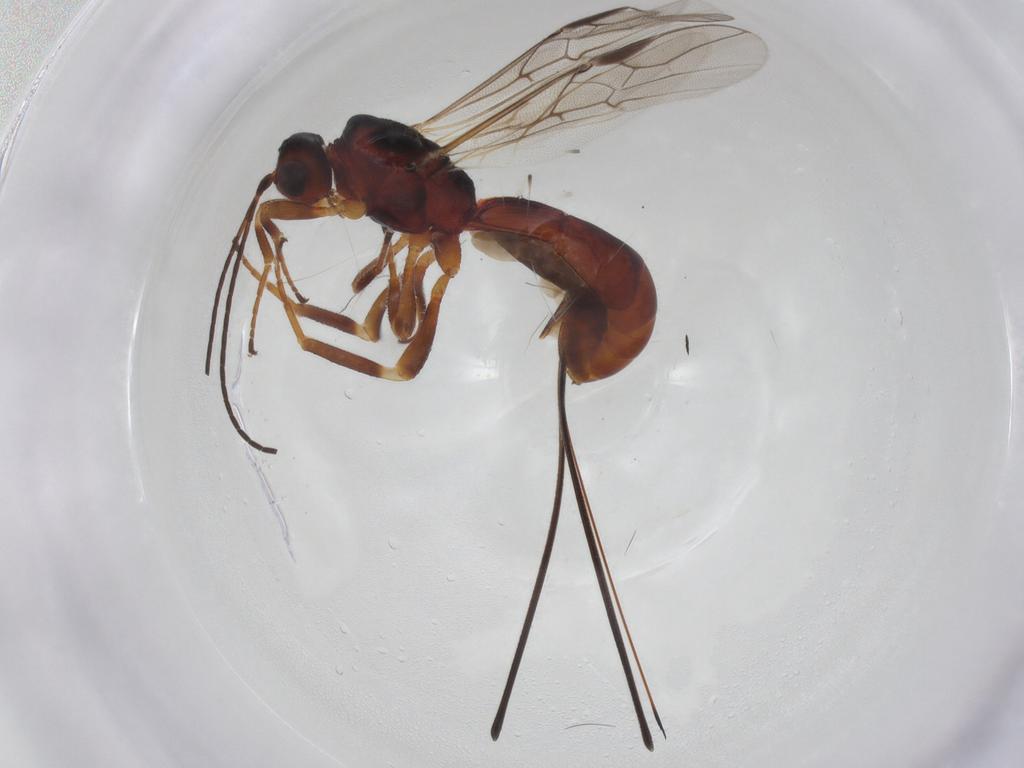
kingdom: Animalia
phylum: Arthropoda
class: Insecta
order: Hymenoptera
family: Braconidae
